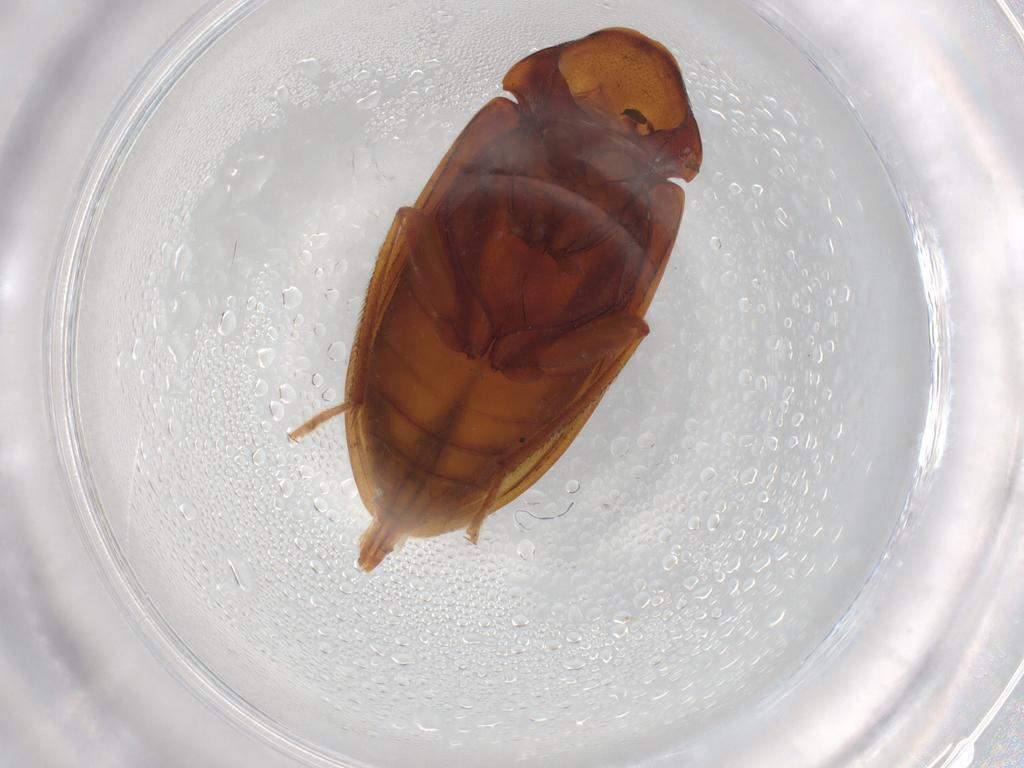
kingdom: Animalia
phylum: Arthropoda
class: Insecta
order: Coleoptera
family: Ptilodactylidae
